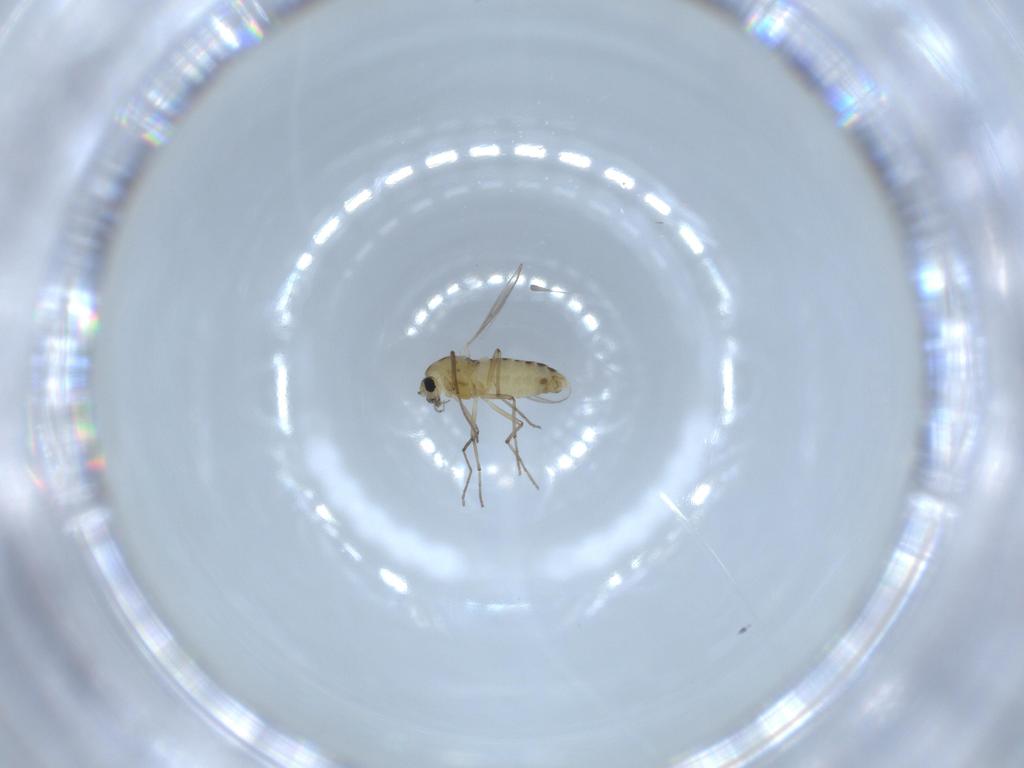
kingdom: Animalia
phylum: Arthropoda
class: Insecta
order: Diptera
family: Chironomidae
